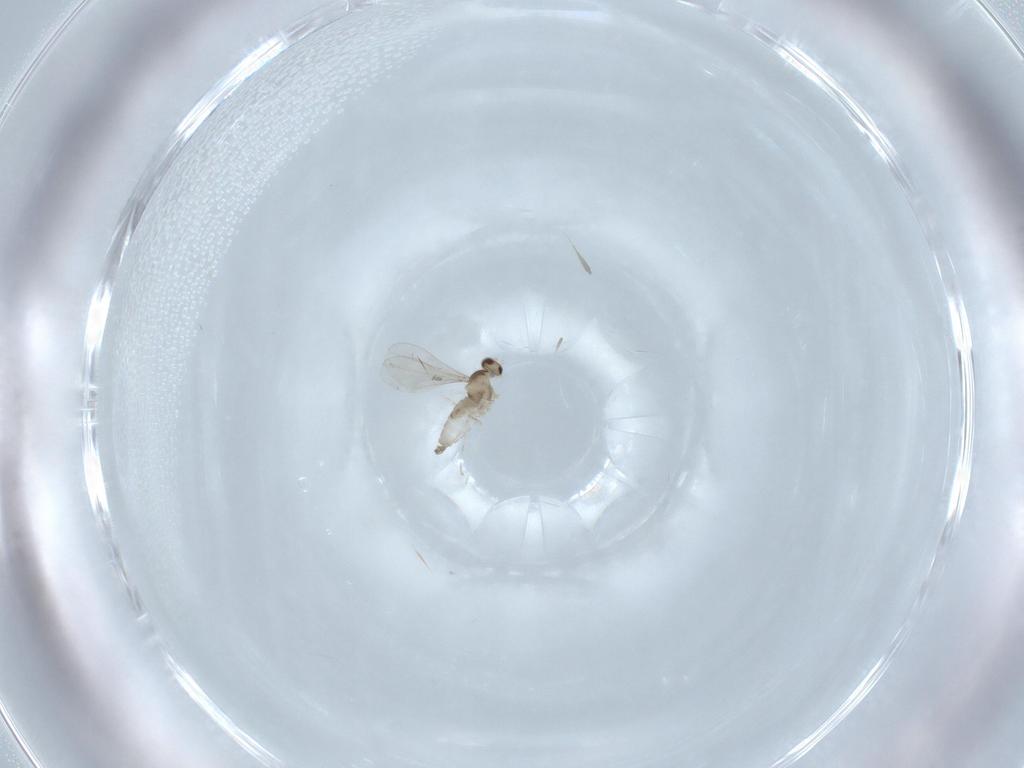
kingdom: Animalia
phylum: Arthropoda
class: Insecta
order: Diptera
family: Cecidomyiidae
